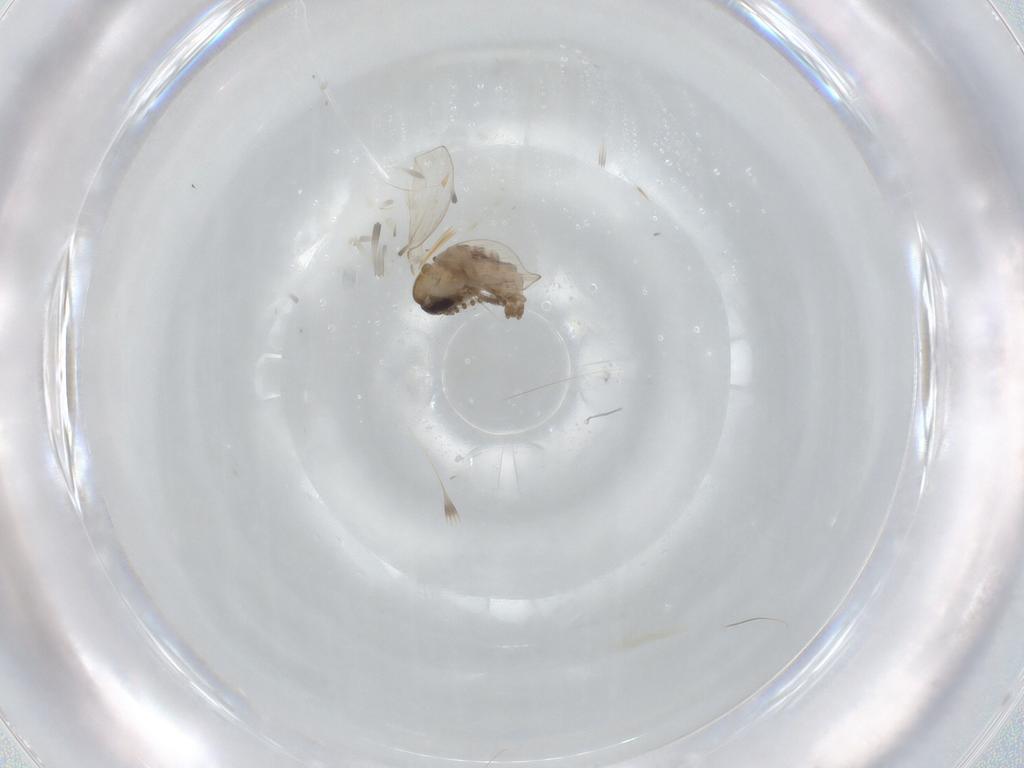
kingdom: Animalia
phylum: Arthropoda
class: Insecta
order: Diptera
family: Psychodidae
